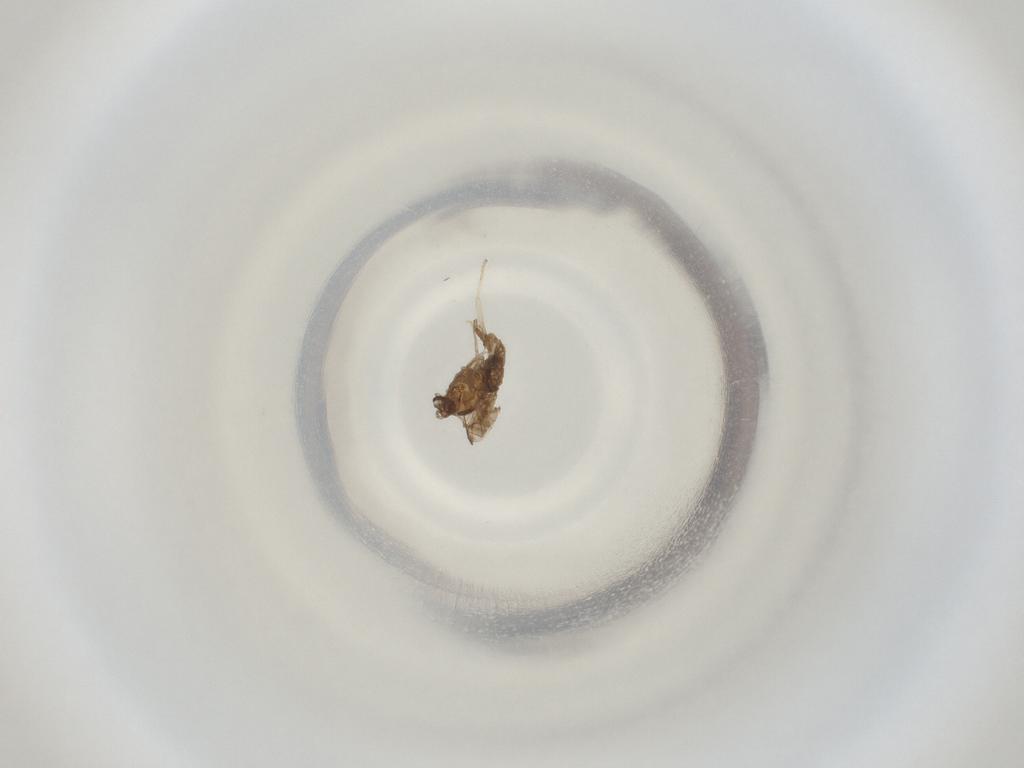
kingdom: Animalia
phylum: Arthropoda
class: Insecta
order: Diptera
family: Cecidomyiidae
